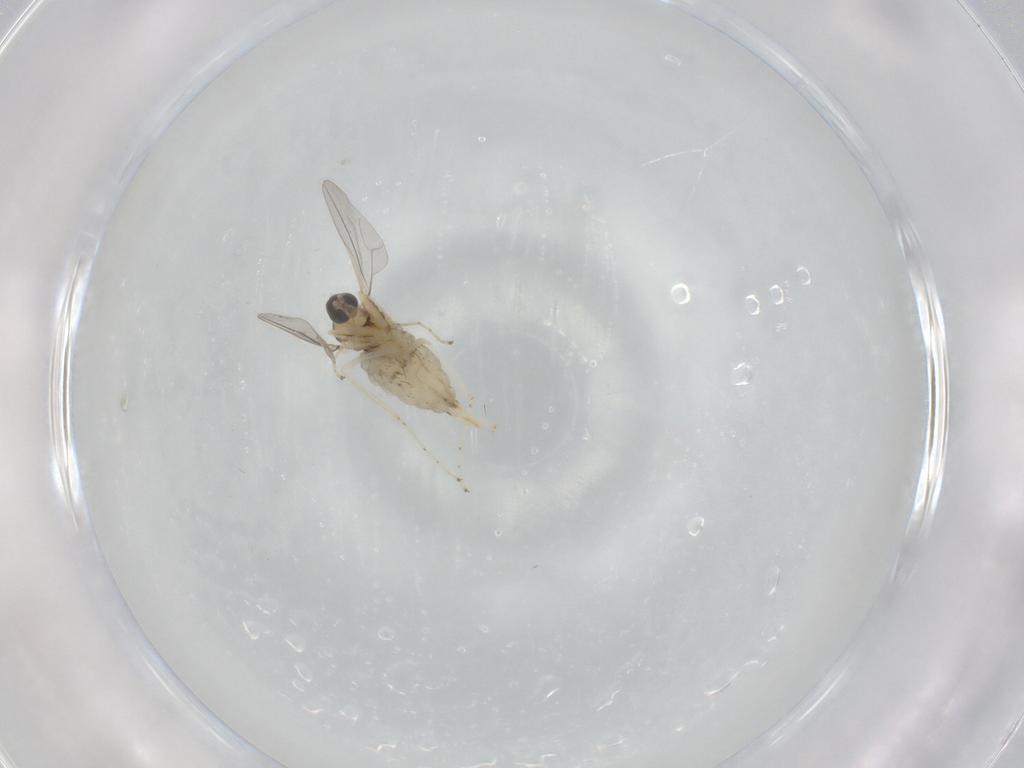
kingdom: Animalia
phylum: Arthropoda
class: Insecta
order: Diptera
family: Cecidomyiidae
